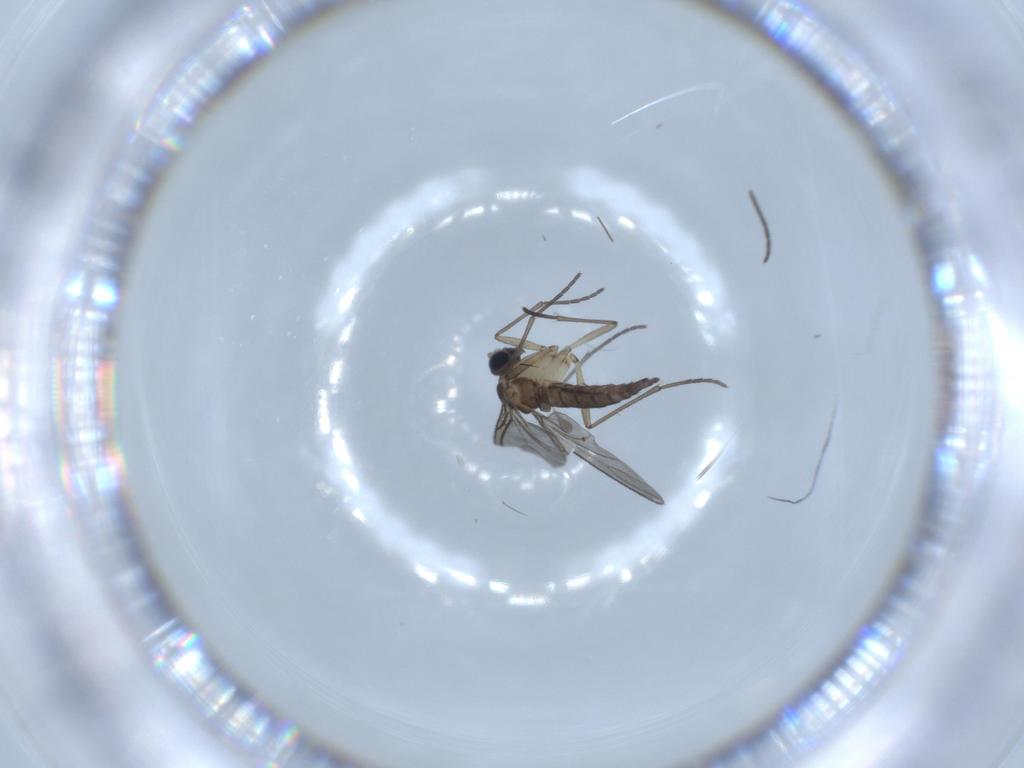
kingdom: Animalia
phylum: Arthropoda
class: Insecta
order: Diptera
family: Sciaridae
